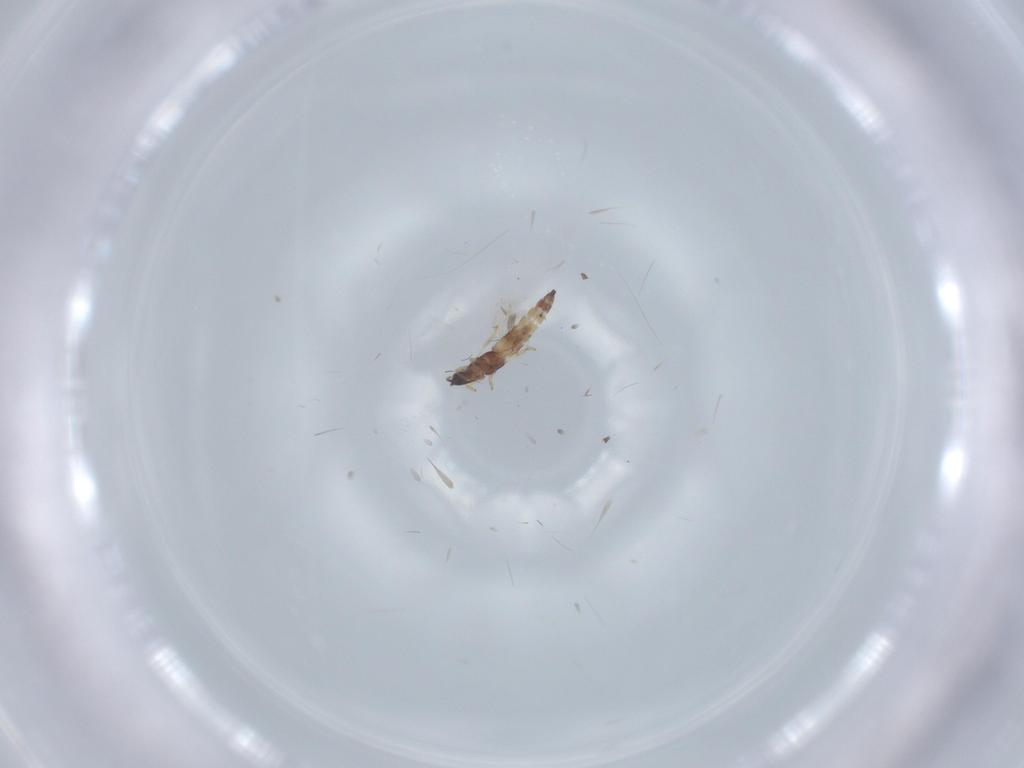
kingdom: Animalia
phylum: Arthropoda
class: Insecta
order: Thysanoptera
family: Phlaeothripidae
